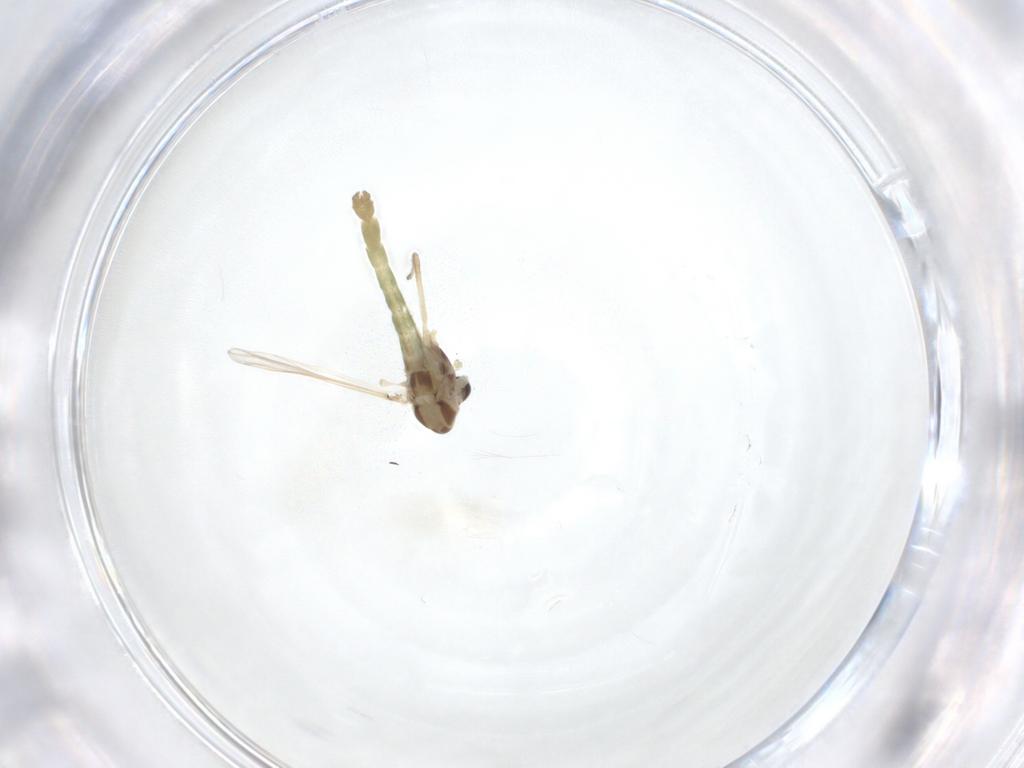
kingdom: Animalia
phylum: Arthropoda
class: Insecta
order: Diptera
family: Chironomidae
